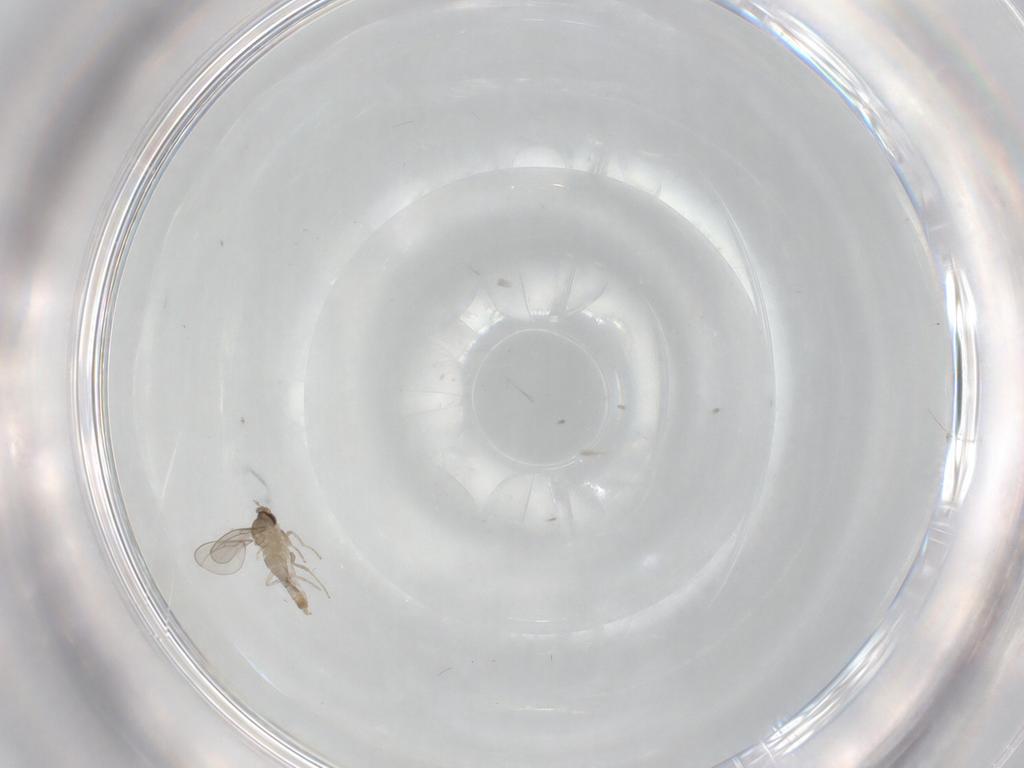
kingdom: Animalia
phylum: Arthropoda
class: Insecta
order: Diptera
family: Cecidomyiidae
